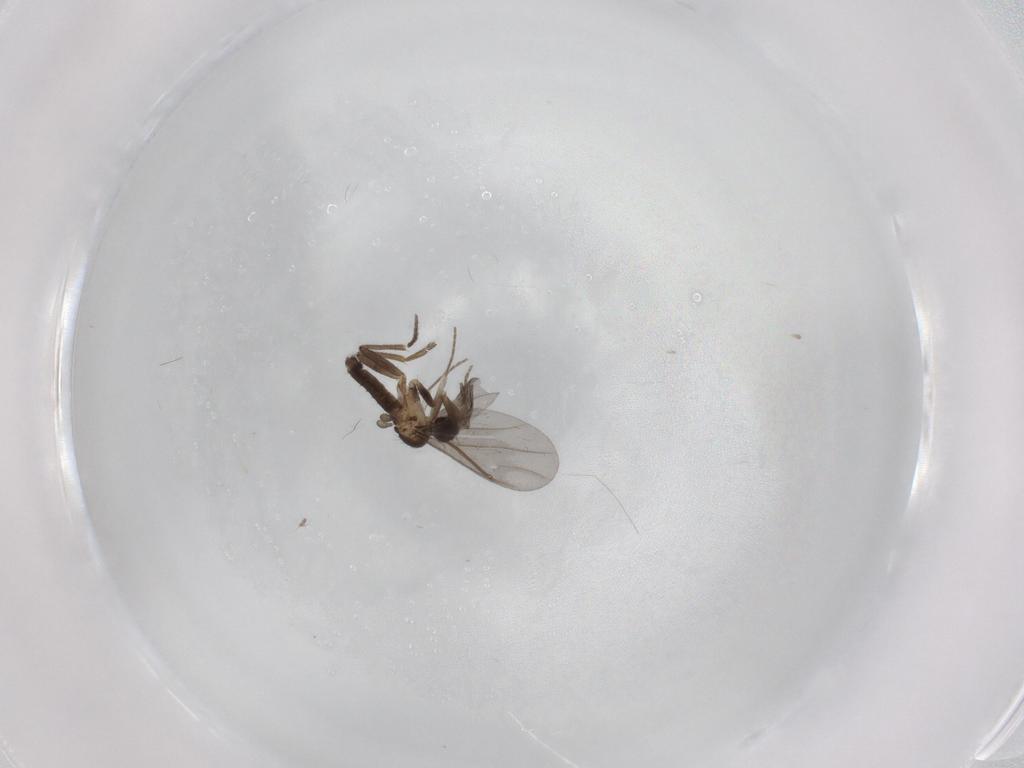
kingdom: Animalia
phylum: Arthropoda
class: Insecta
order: Diptera
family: Phoridae
